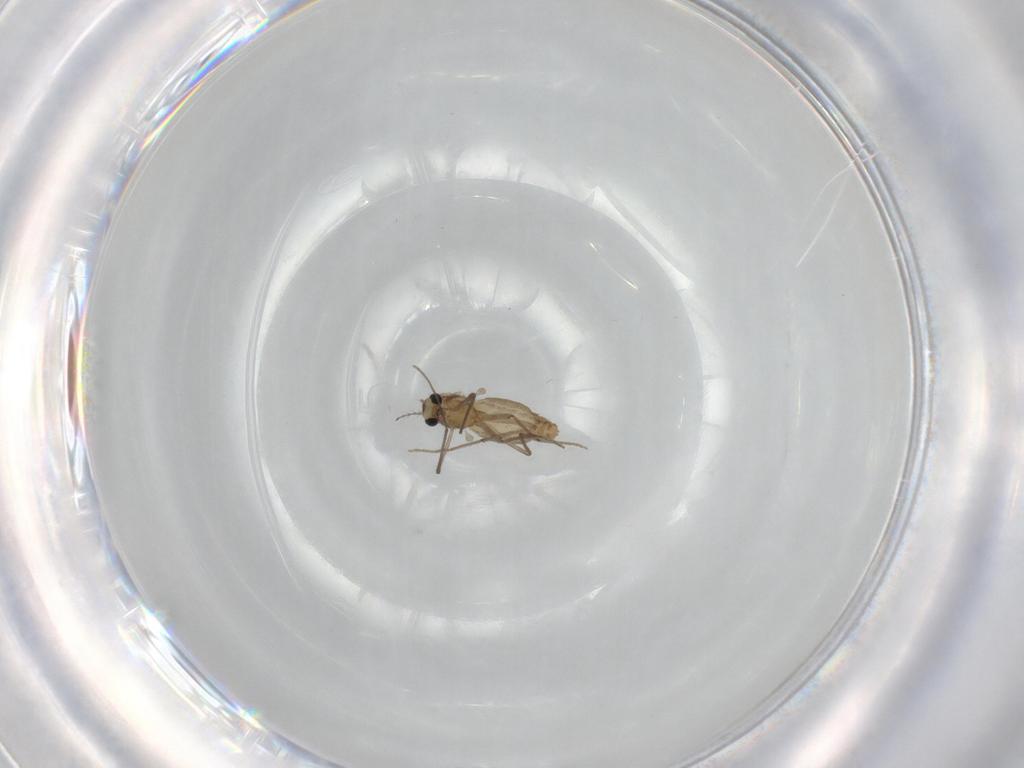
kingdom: Animalia
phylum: Arthropoda
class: Insecta
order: Diptera
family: Chironomidae
